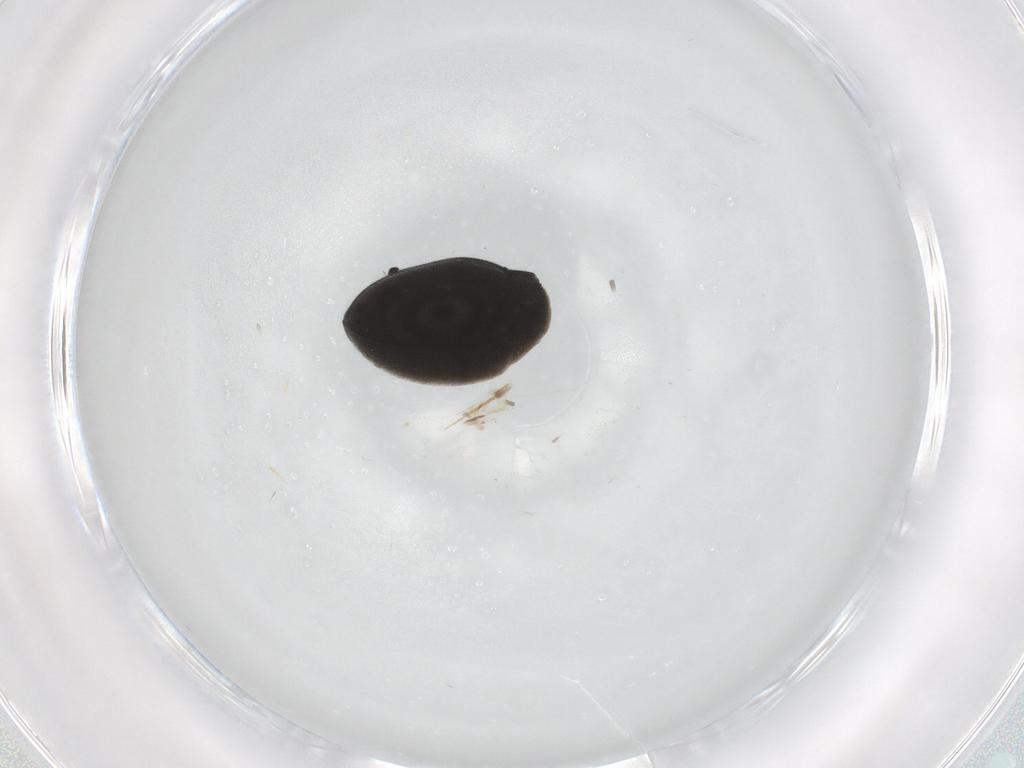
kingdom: Animalia
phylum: Arthropoda
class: Insecta
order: Coleoptera
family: Limnichidae
